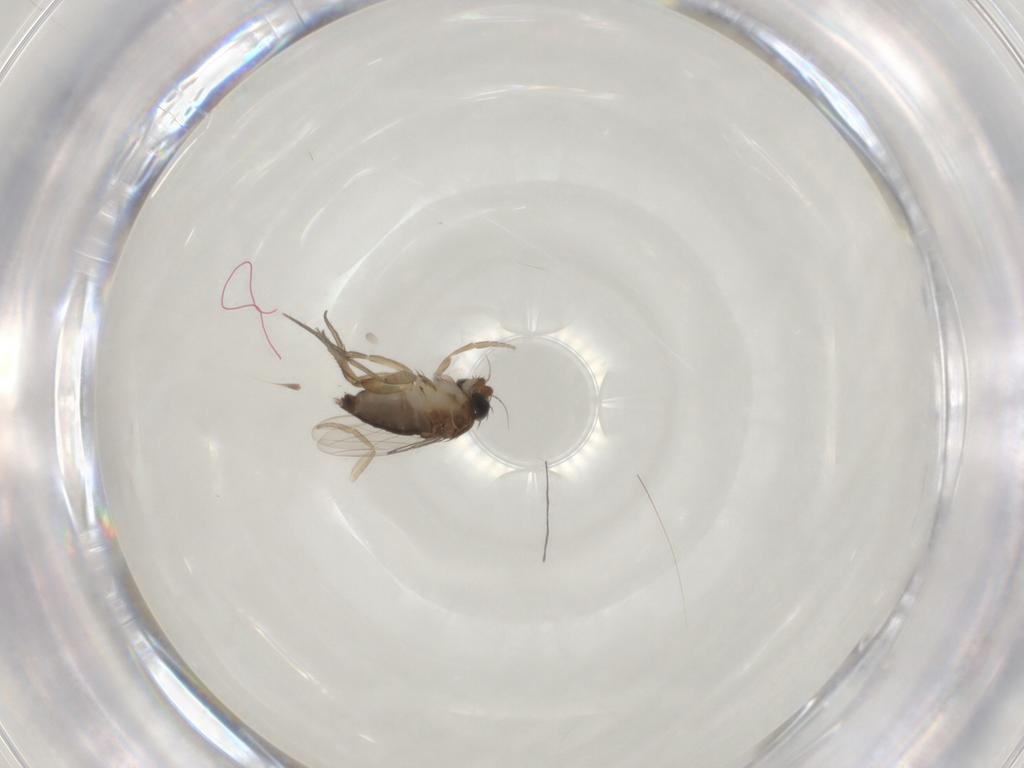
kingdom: Animalia
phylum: Arthropoda
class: Insecta
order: Diptera
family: Phoridae
